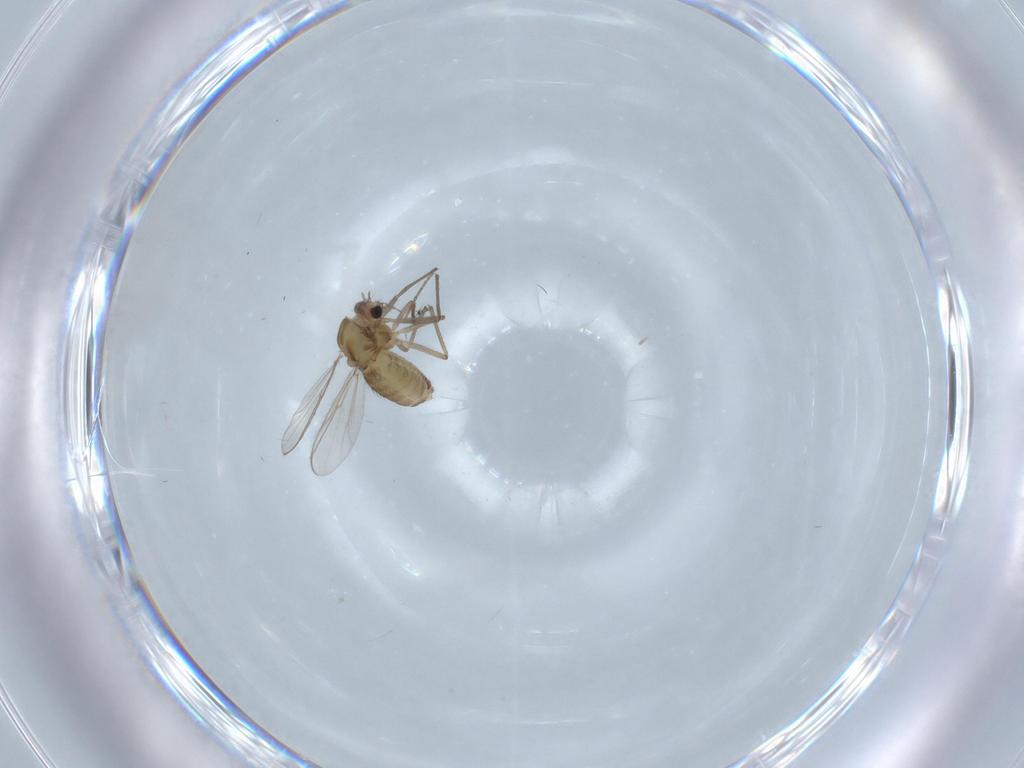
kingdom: Animalia
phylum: Arthropoda
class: Insecta
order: Diptera
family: Chironomidae
